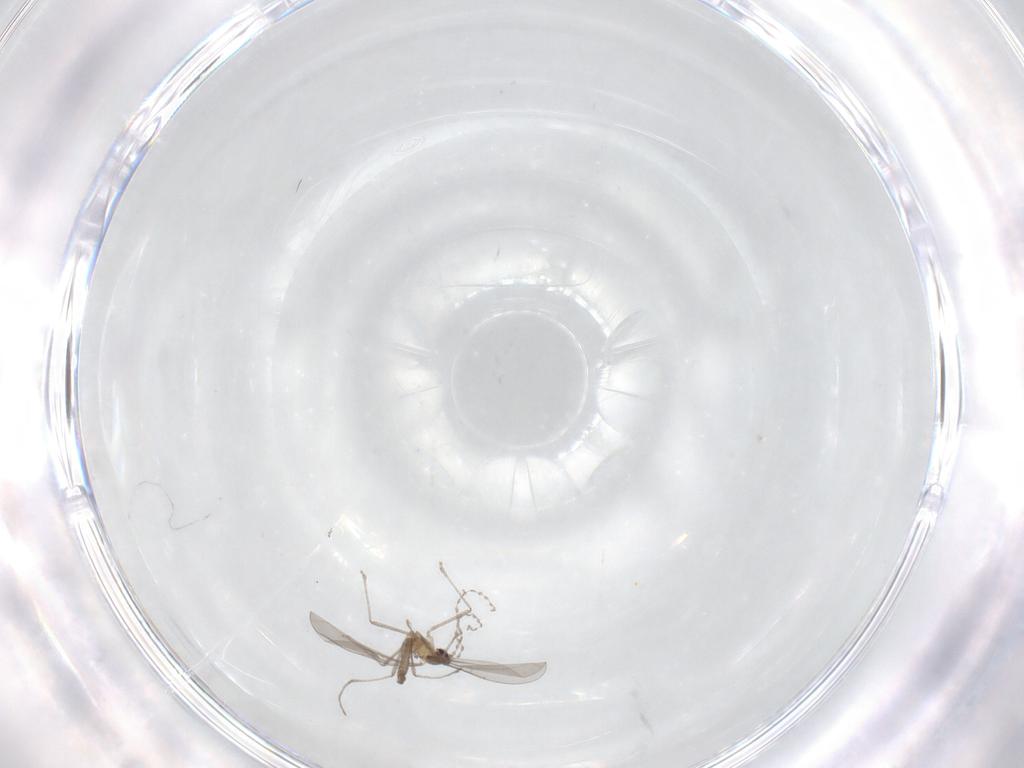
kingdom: Animalia
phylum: Arthropoda
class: Insecta
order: Diptera
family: Cecidomyiidae
